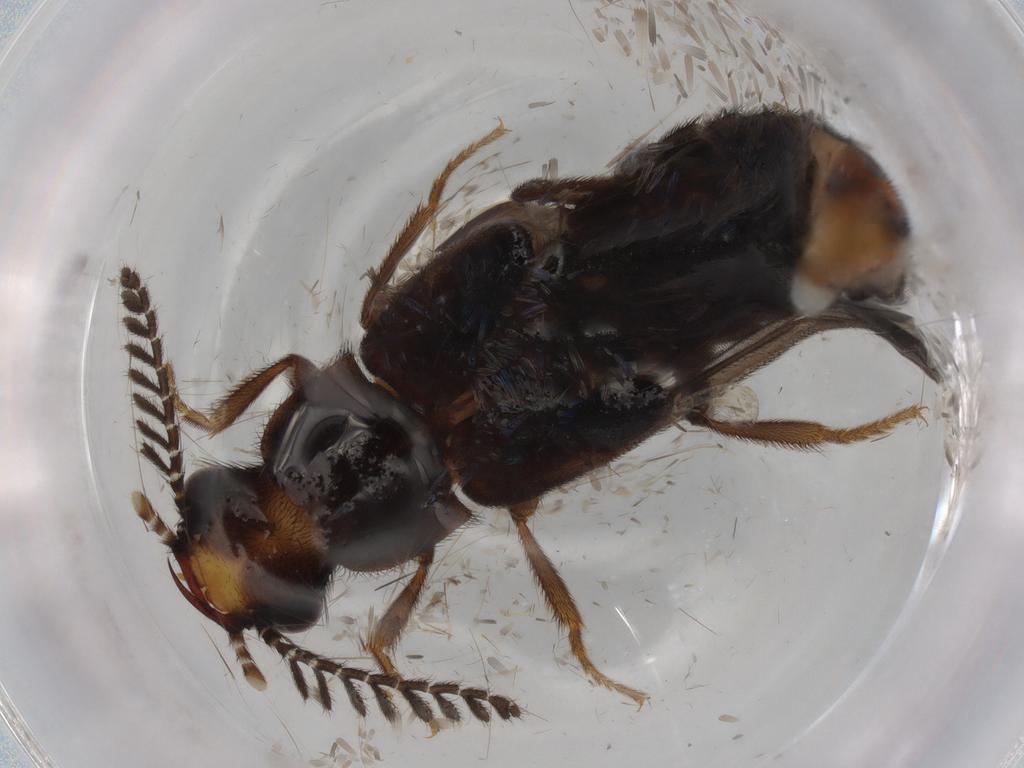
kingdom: Animalia
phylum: Arthropoda
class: Insecta
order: Coleoptera
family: Phengodidae
